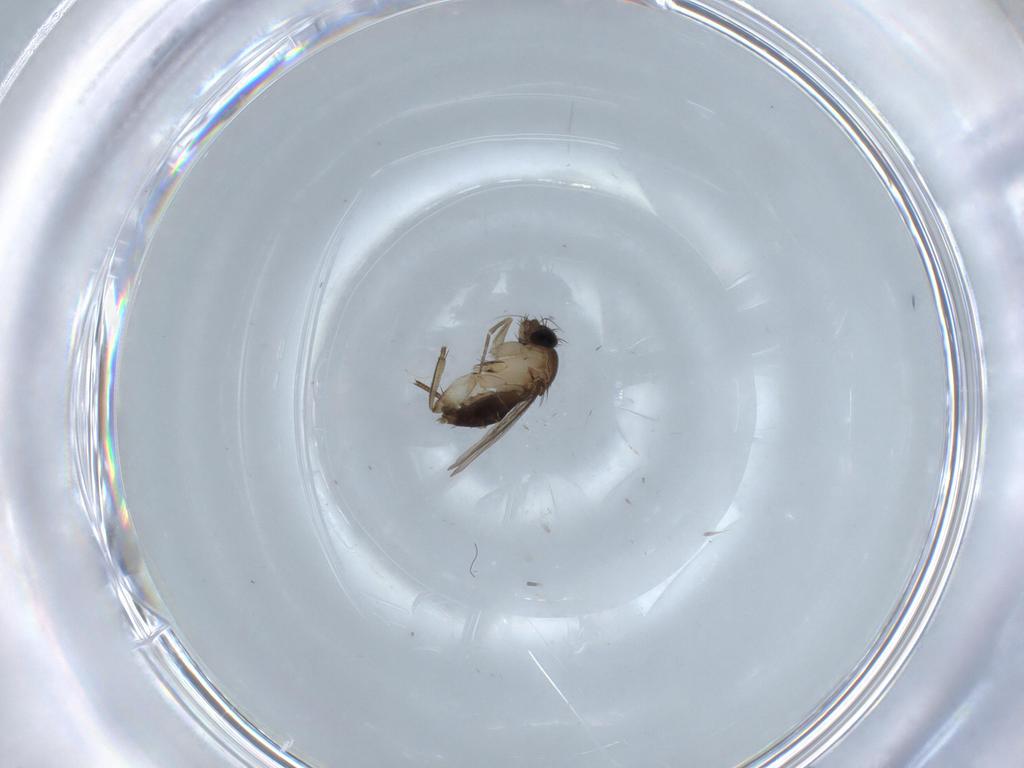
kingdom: Animalia
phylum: Arthropoda
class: Insecta
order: Diptera
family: Phoridae
